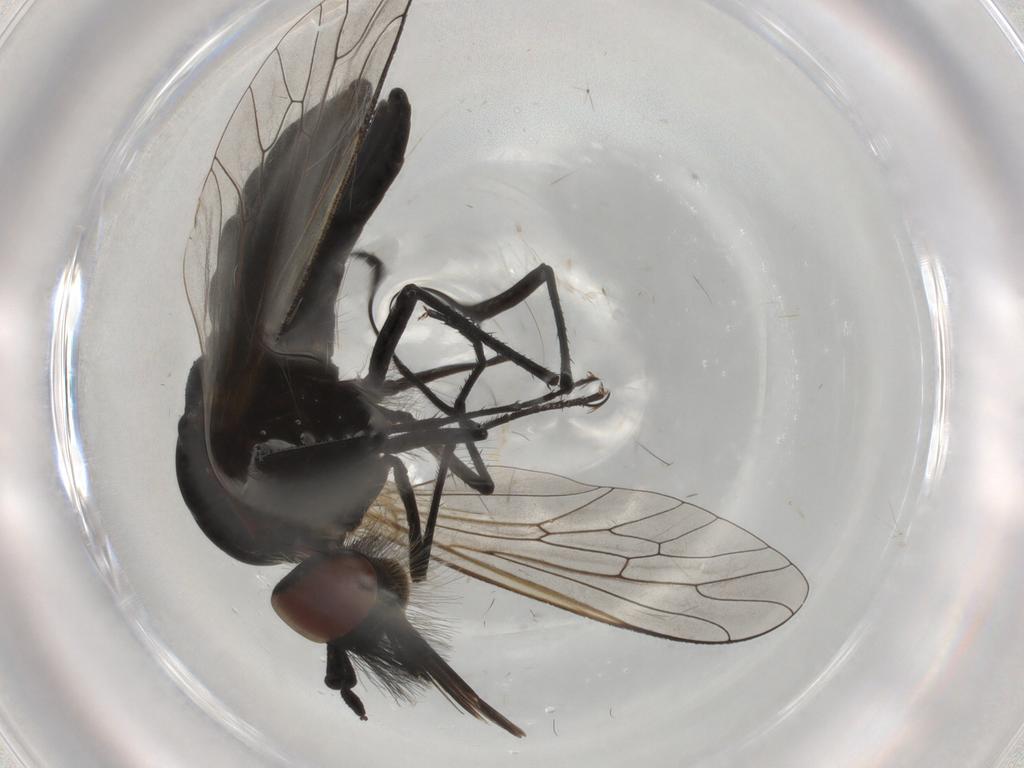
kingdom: Animalia
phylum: Arthropoda
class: Insecta
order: Diptera
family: Bombyliidae
